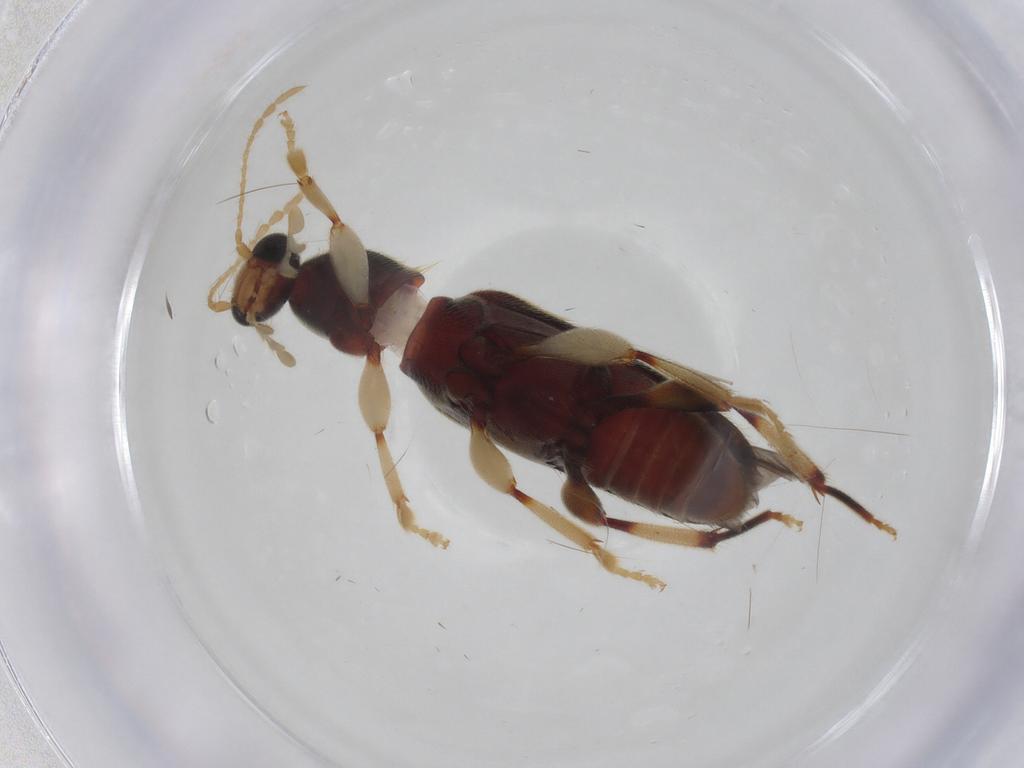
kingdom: Animalia
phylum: Arthropoda
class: Insecta
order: Coleoptera
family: Anthicidae
